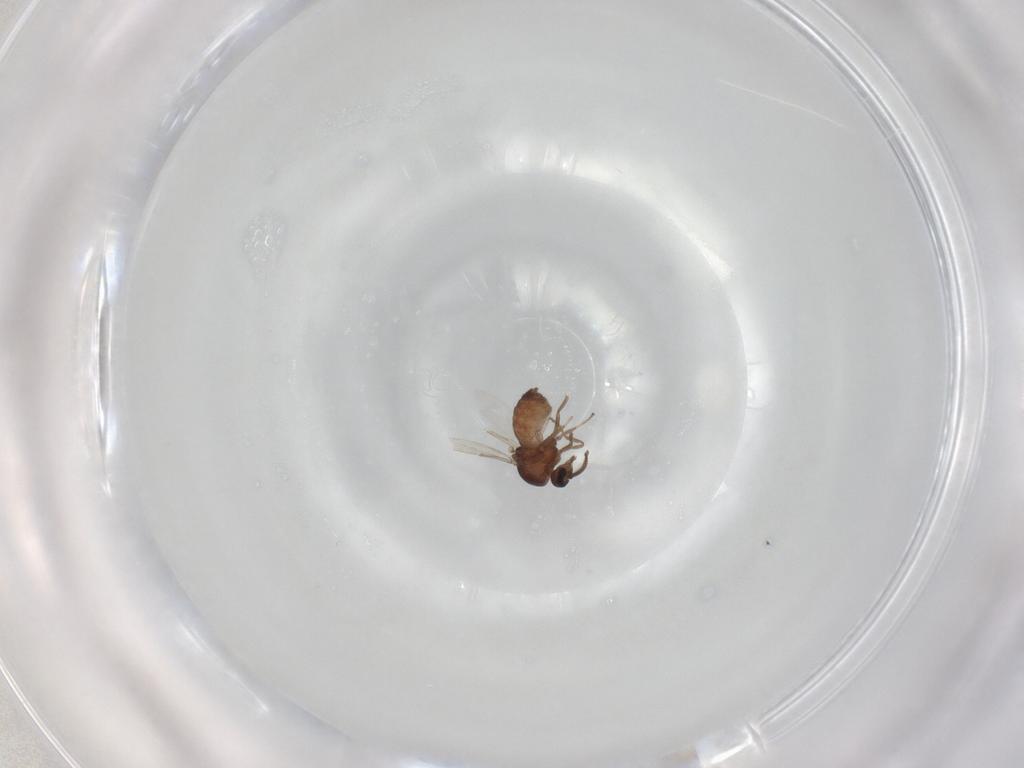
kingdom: Animalia
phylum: Arthropoda
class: Insecta
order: Diptera
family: Ceratopogonidae
